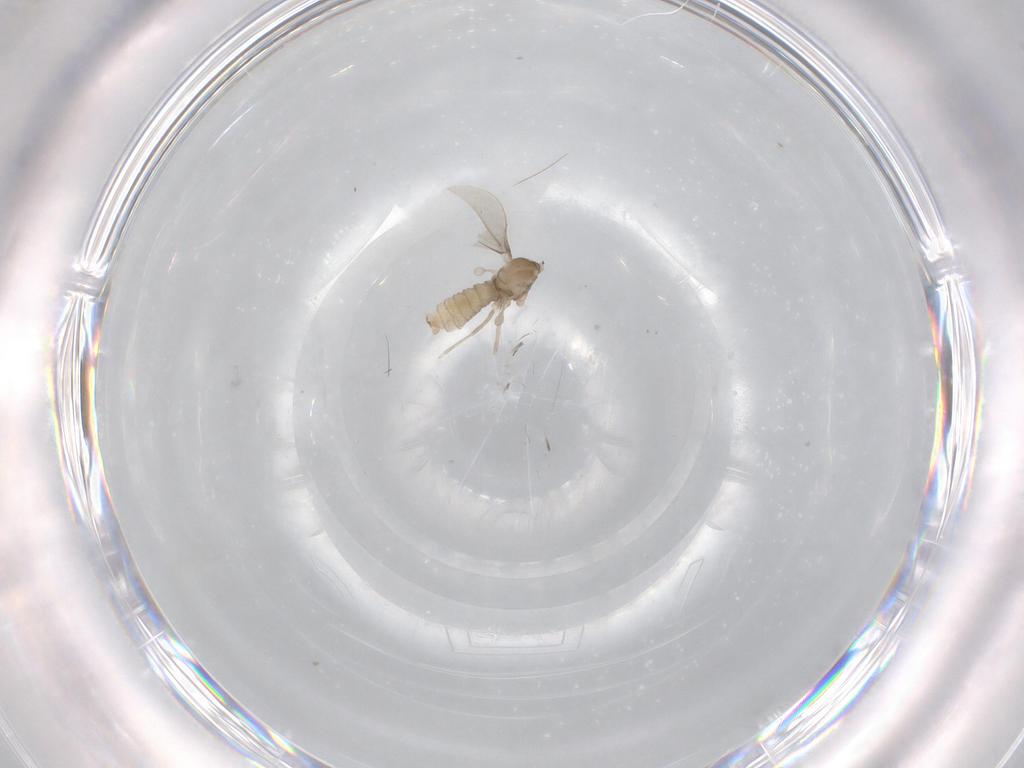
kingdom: Animalia
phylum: Arthropoda
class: Insecta
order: Diptera
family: Cecidomyiidae
